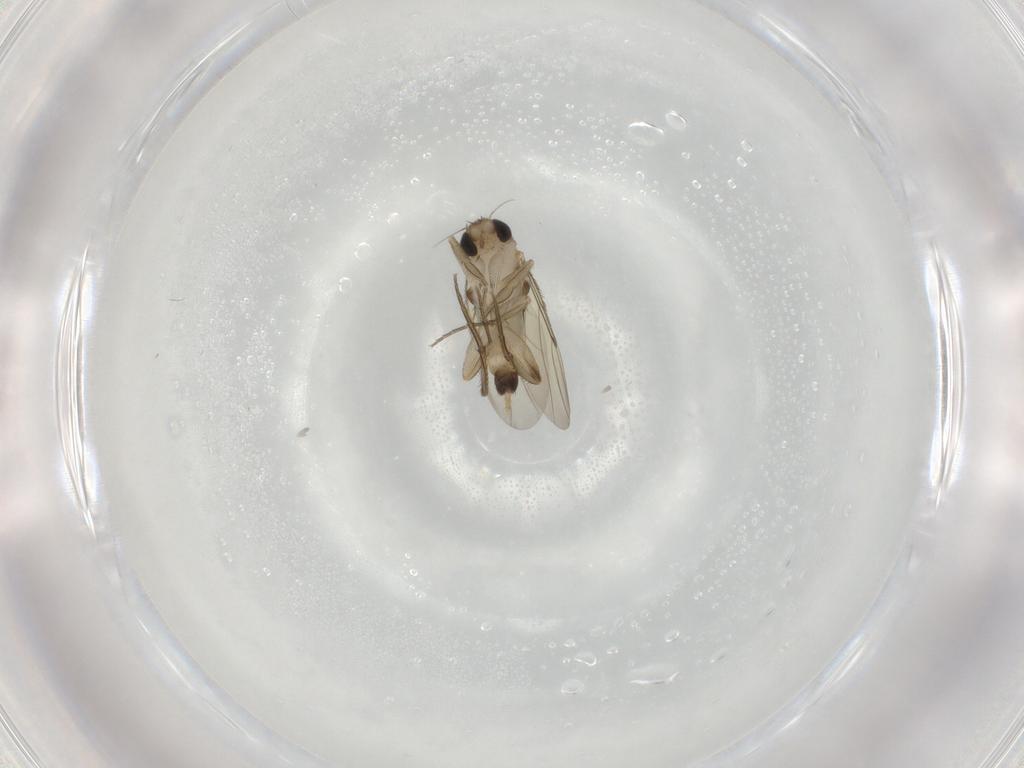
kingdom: Animalia
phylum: Arthropoda
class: Insecta
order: Diptera
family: Phoridae
